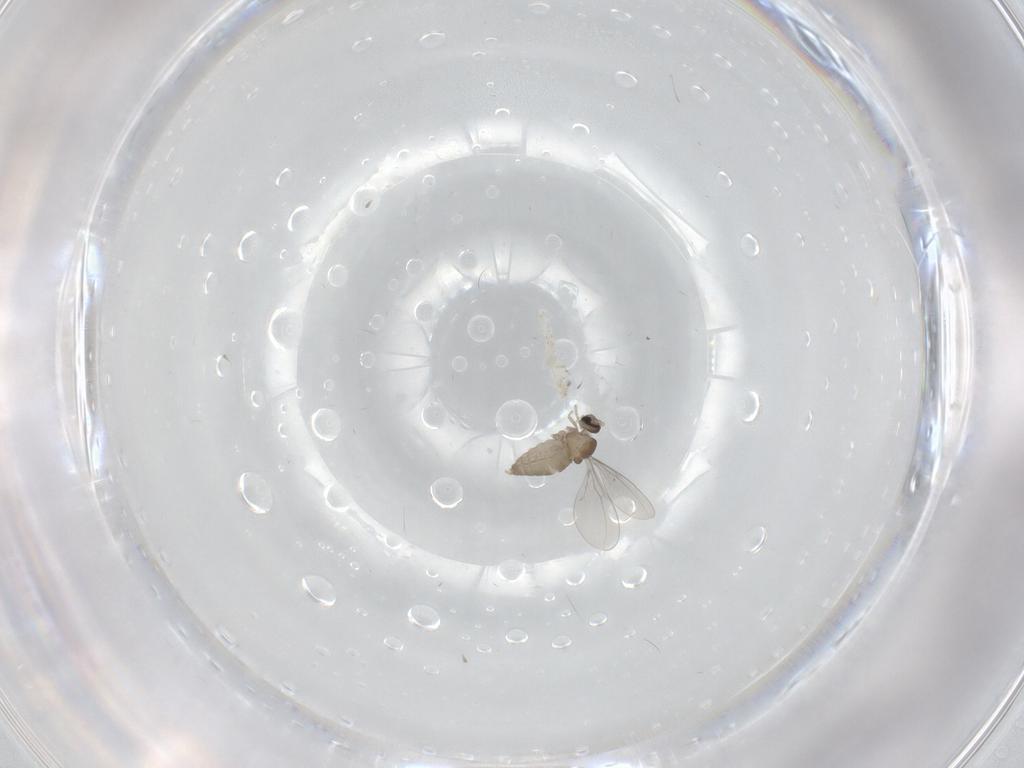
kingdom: Animalia
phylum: Arthropoda
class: Insecta
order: Diptera
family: Cecidomyiidae
